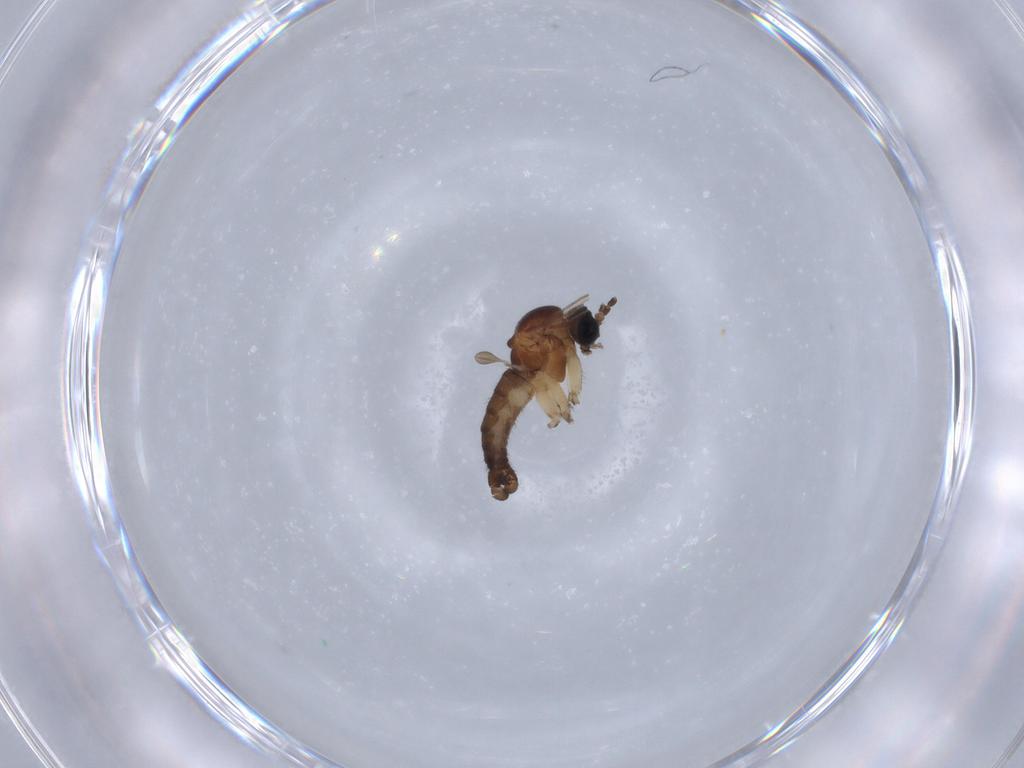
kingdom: Animalia
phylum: Arthropoda
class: Insecta
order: Diptera
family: Sciaridae
